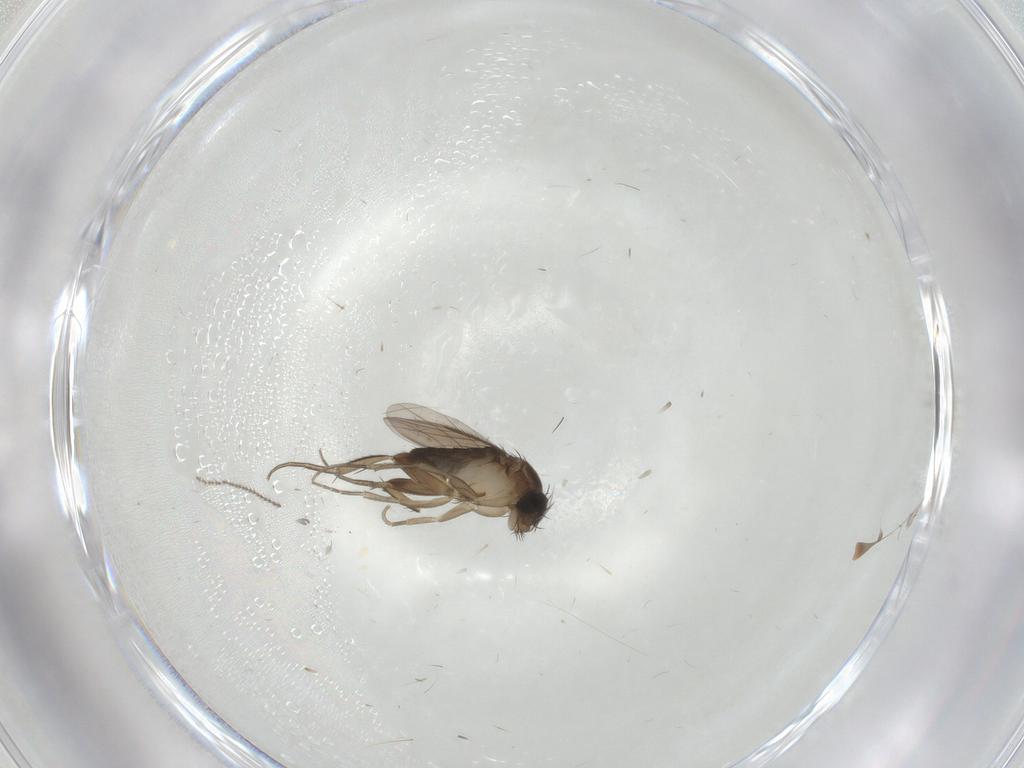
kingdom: Animalia
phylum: Arthropoda
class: Insecta
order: Diptera
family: Phoridae
